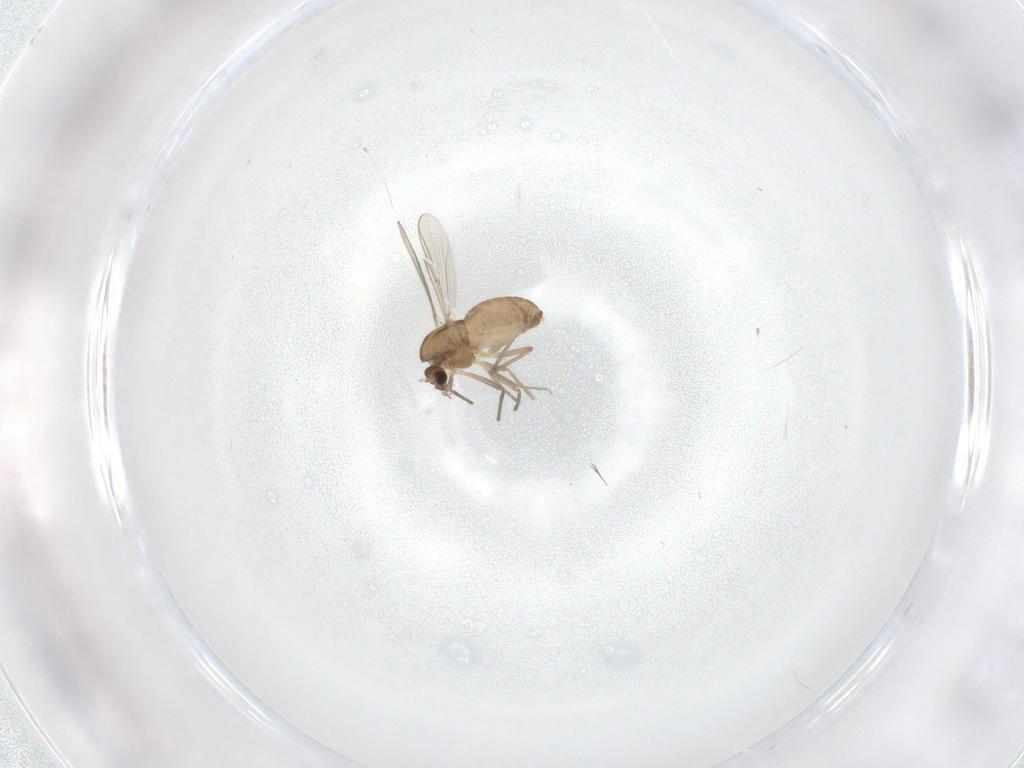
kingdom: Animalia
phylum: Arthropoda
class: Insecta
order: Diptera
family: Chironomidae
